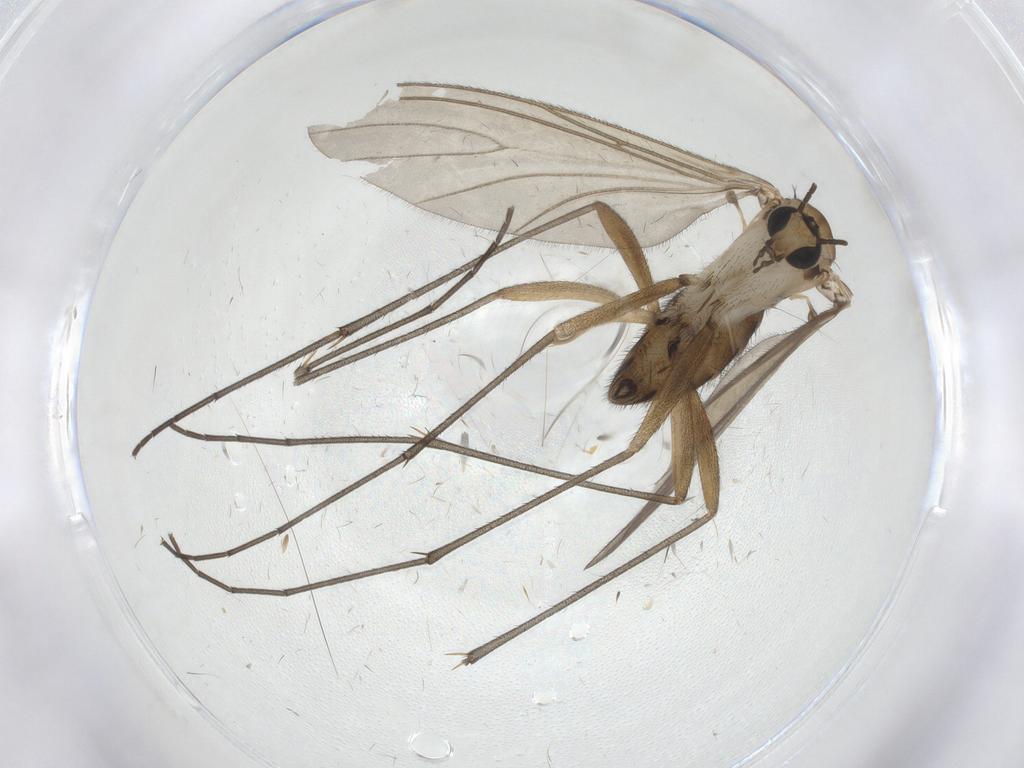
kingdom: Animalia
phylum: Arthropoda
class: Insecta
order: Diptera
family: Sciaridae
